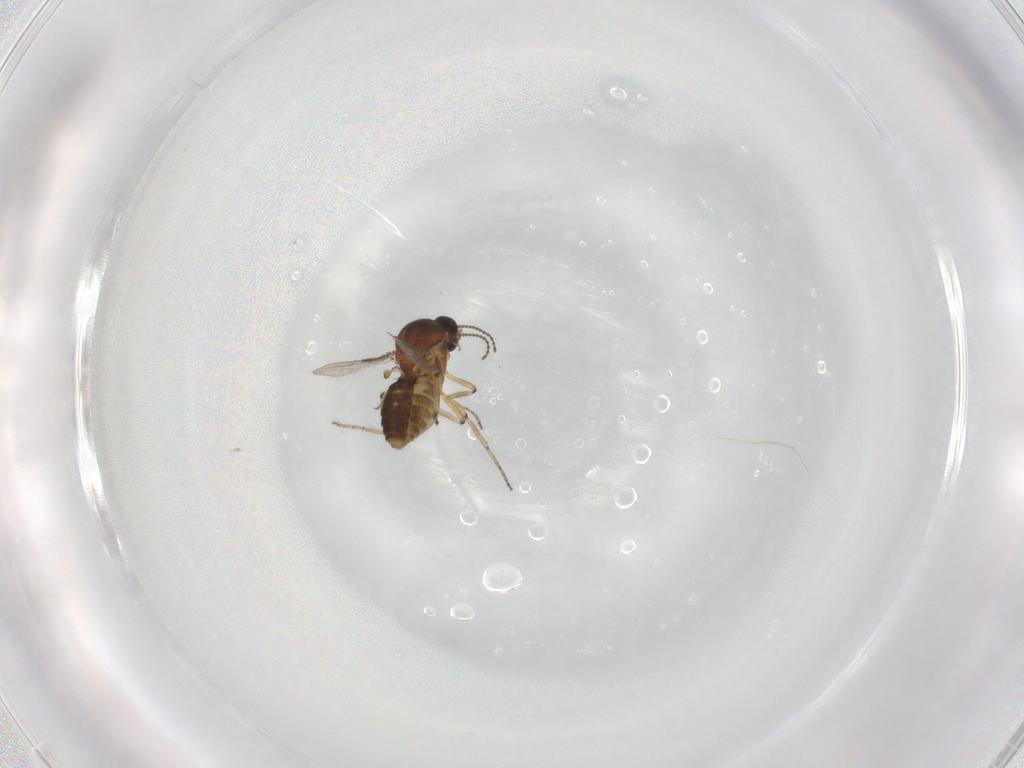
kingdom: Animalia
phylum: Arthropoda
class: Insecta
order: Diptera
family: Ceratopogonidae
